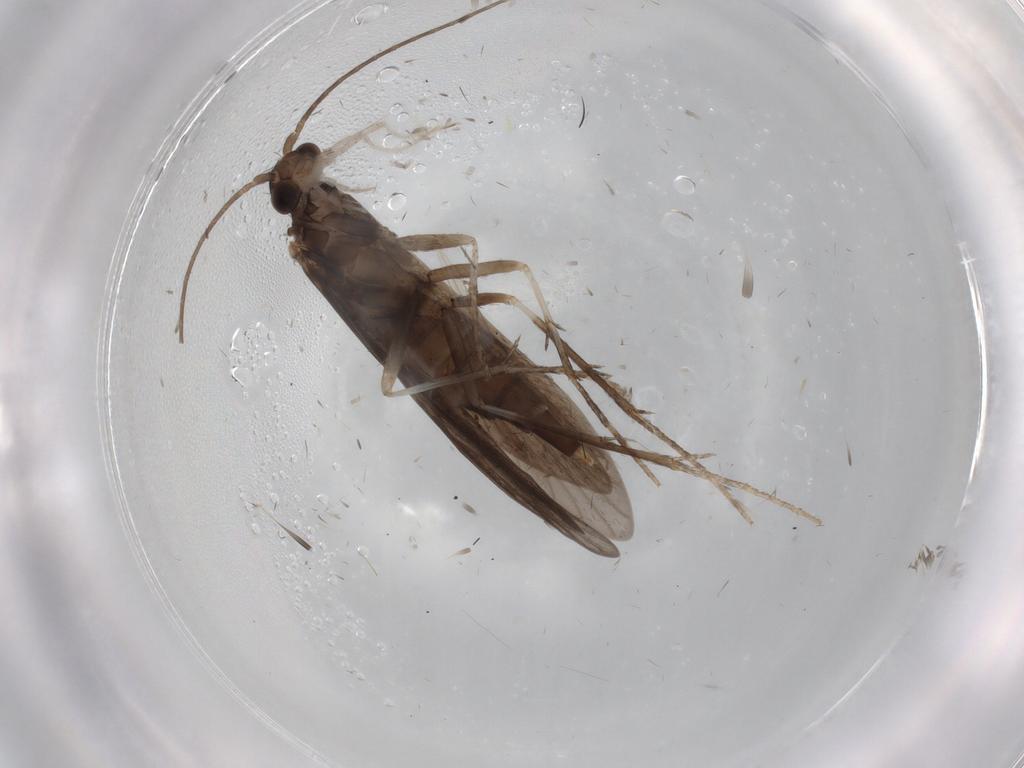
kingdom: Animalia
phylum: Arthropoda
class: Insecta
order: Trichoptera
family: Xiphocentronidae
